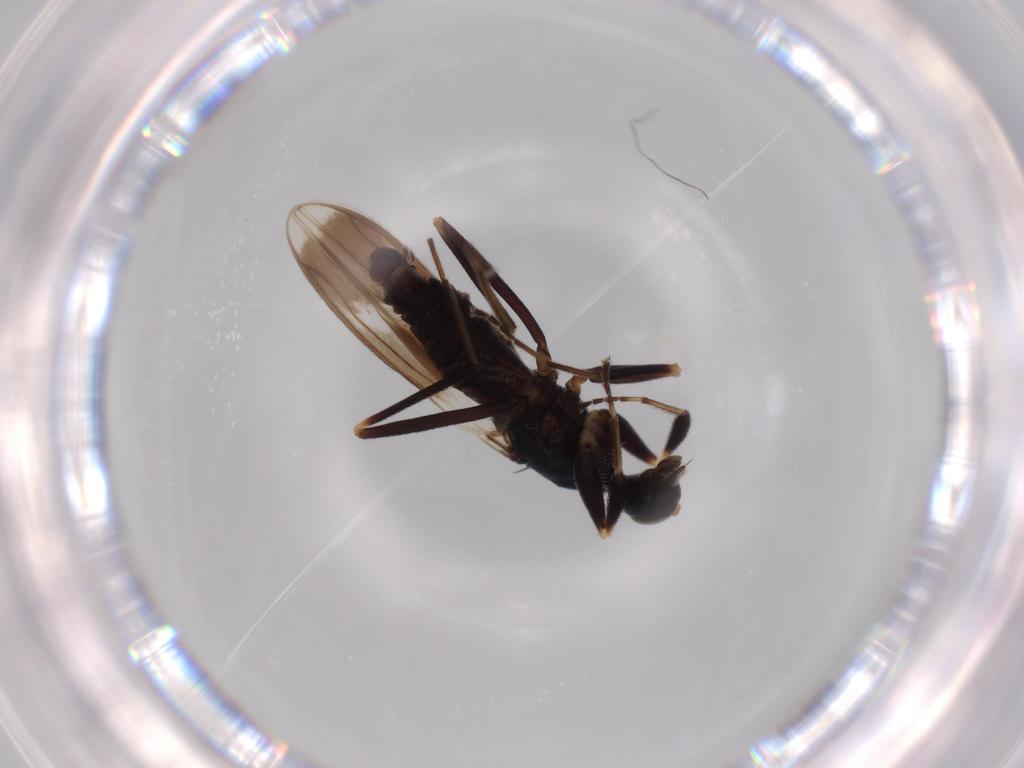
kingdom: Animalia
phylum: Arthropoda
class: Insecta
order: Diptera
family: Hybotidae
